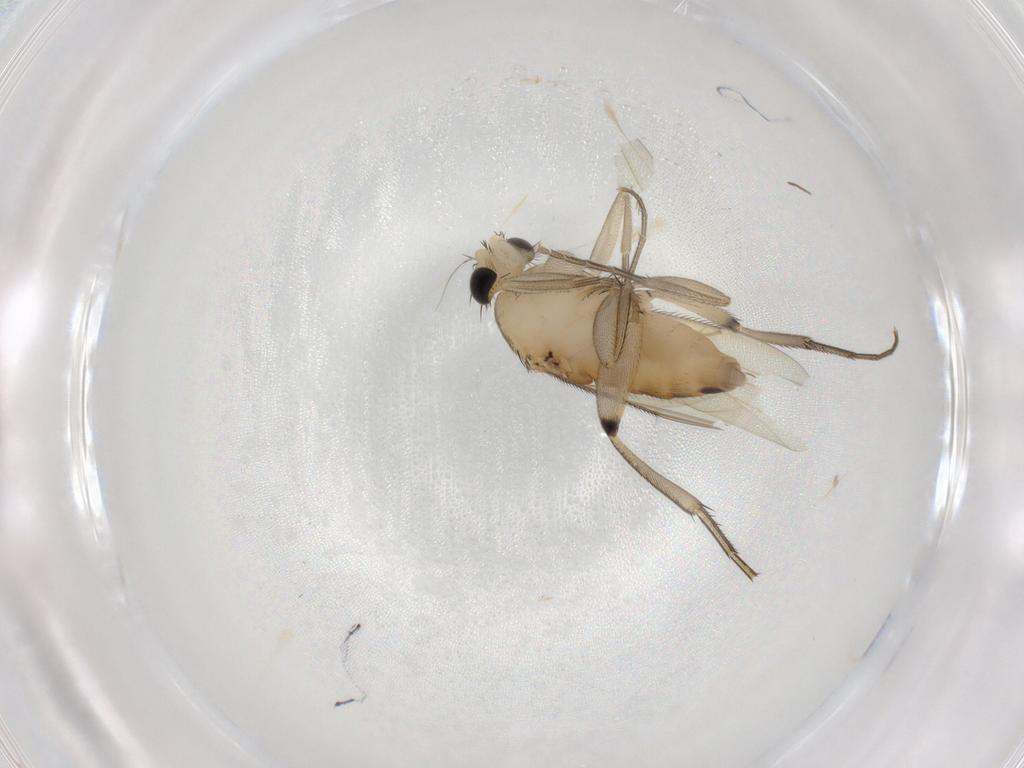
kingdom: Animalia
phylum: Arthropoda
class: Insecta
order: Diptera
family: Phoridae
